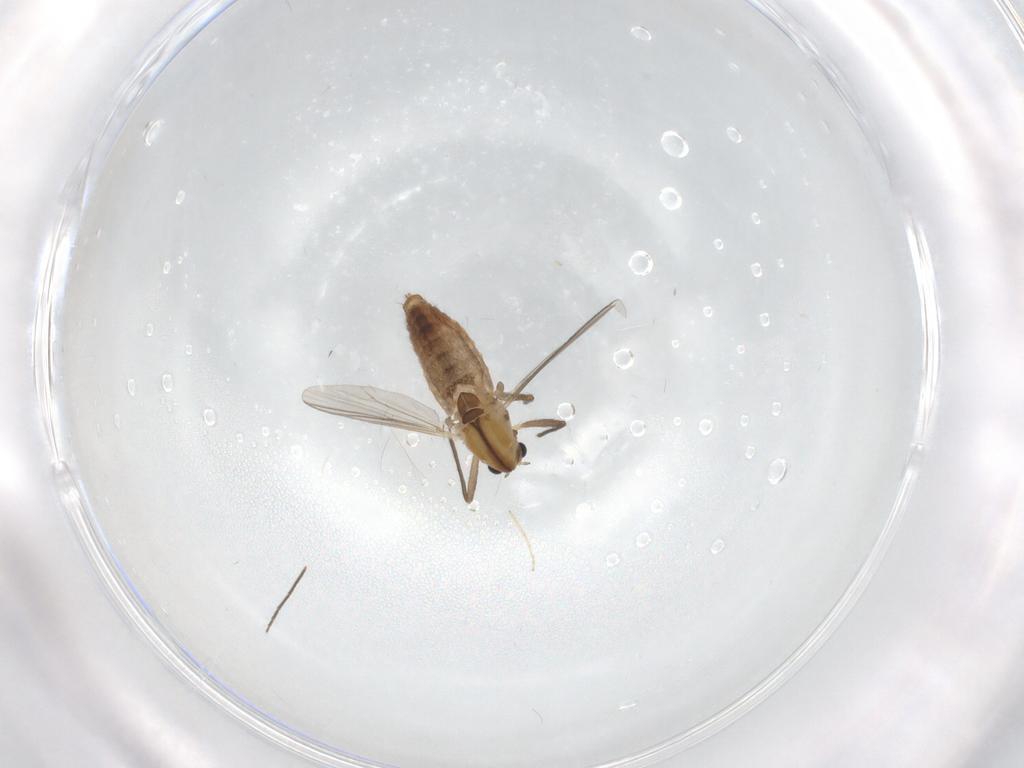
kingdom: Animalia
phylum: Arthropoda
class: Insecta
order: Diptera
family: Chironomidae
